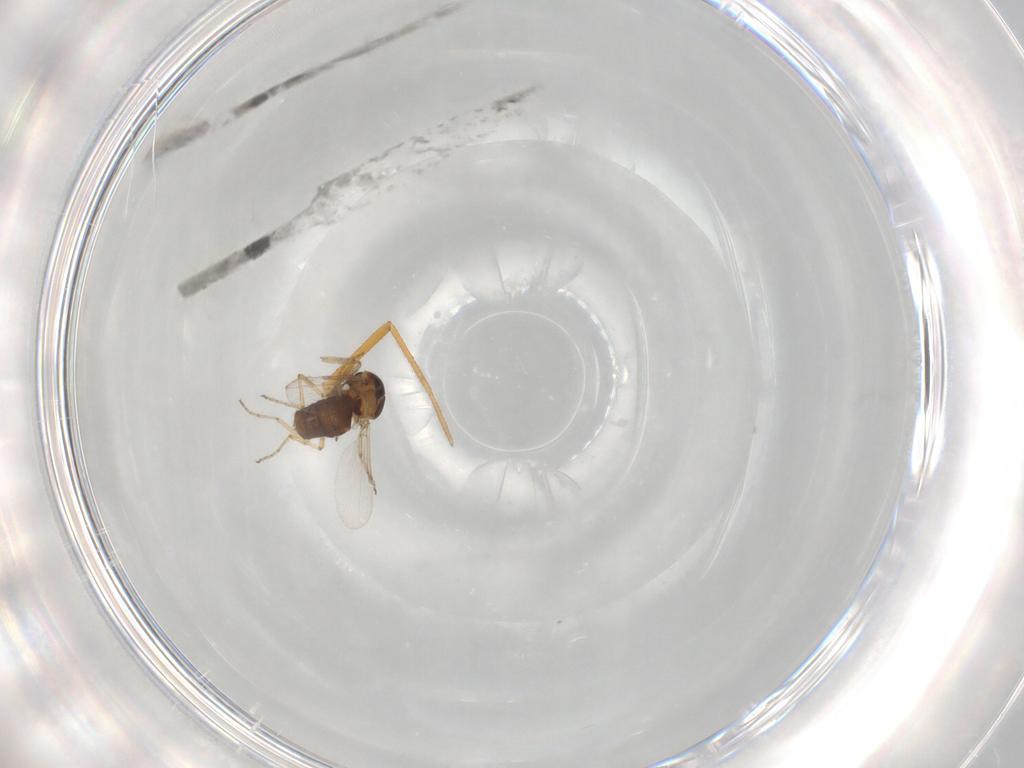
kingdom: Animalia
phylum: Arthropoda
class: Insecta
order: Diptera
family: Ceratopogonidae
